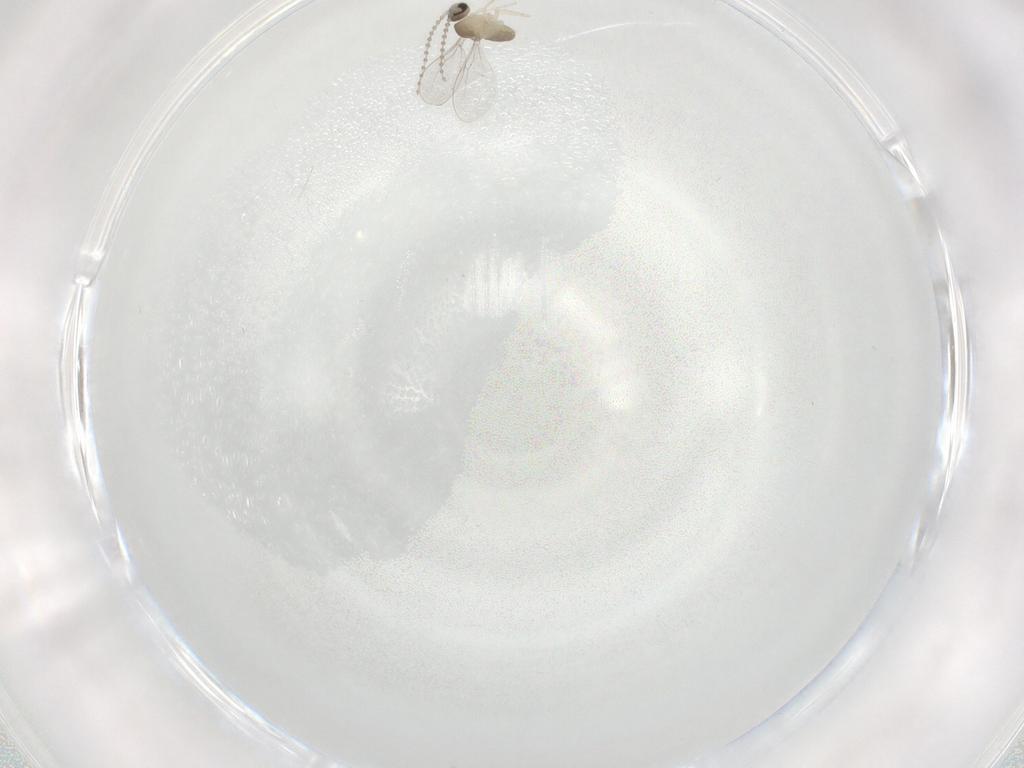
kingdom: Animalia
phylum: Arthropoda
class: Insecta
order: Diptera
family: Cecidomyiidae
